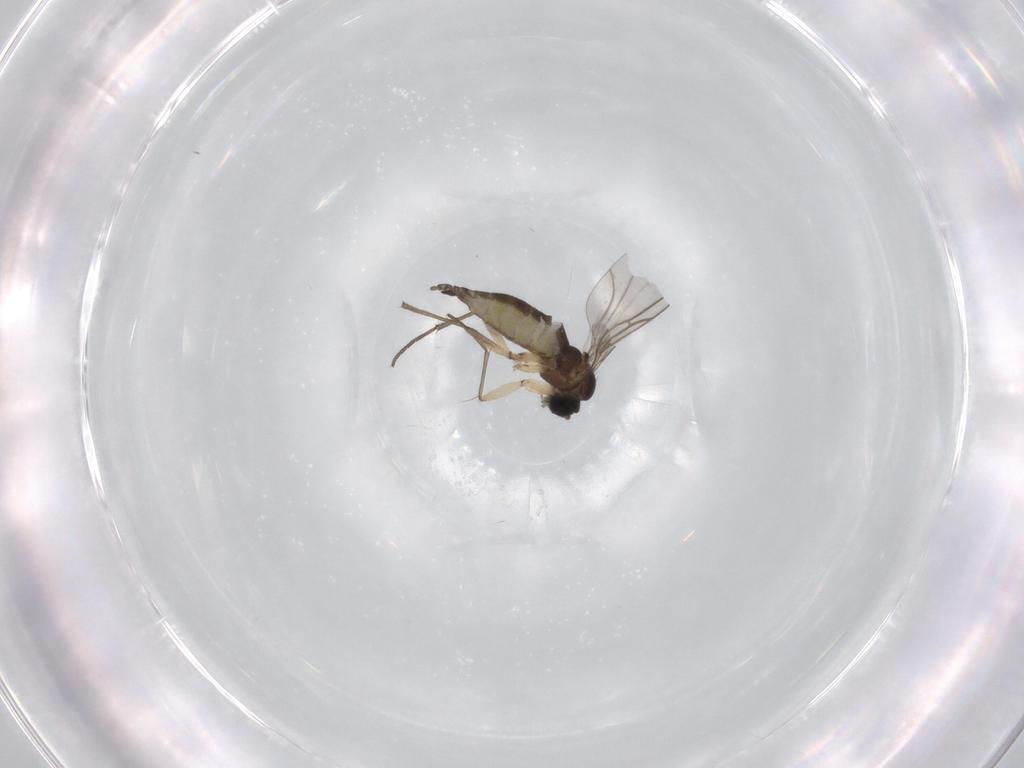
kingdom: Animalia
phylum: Arthropoda
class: Insecta
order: Diptera
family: Sciaridae
